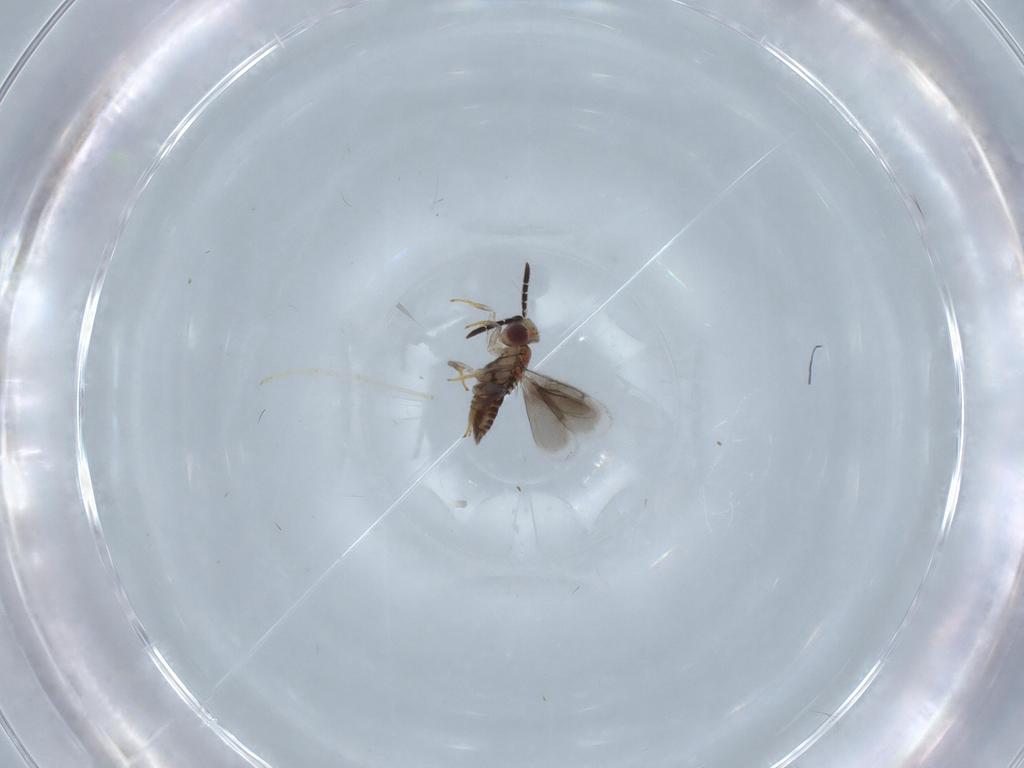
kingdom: Animalia
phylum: Arthropoda
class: Insecta
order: Hymenoptera
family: Aphelinidae
